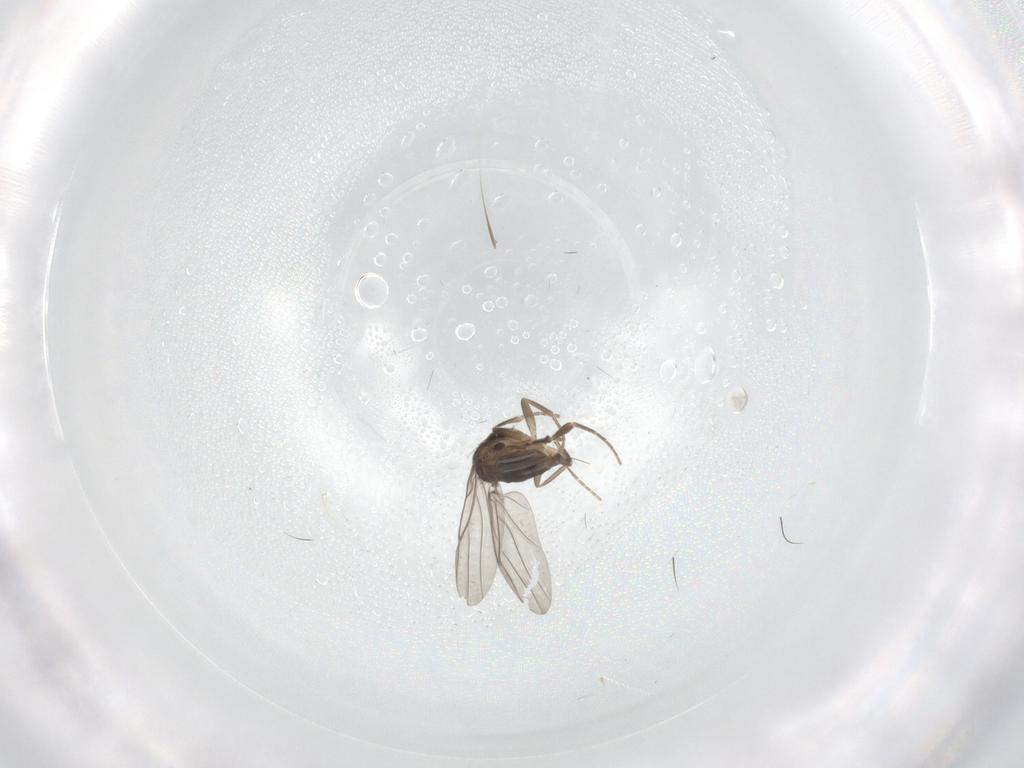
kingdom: Animalia
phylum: Arthropoda
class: Insecta
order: Diptera
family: Phoridae
